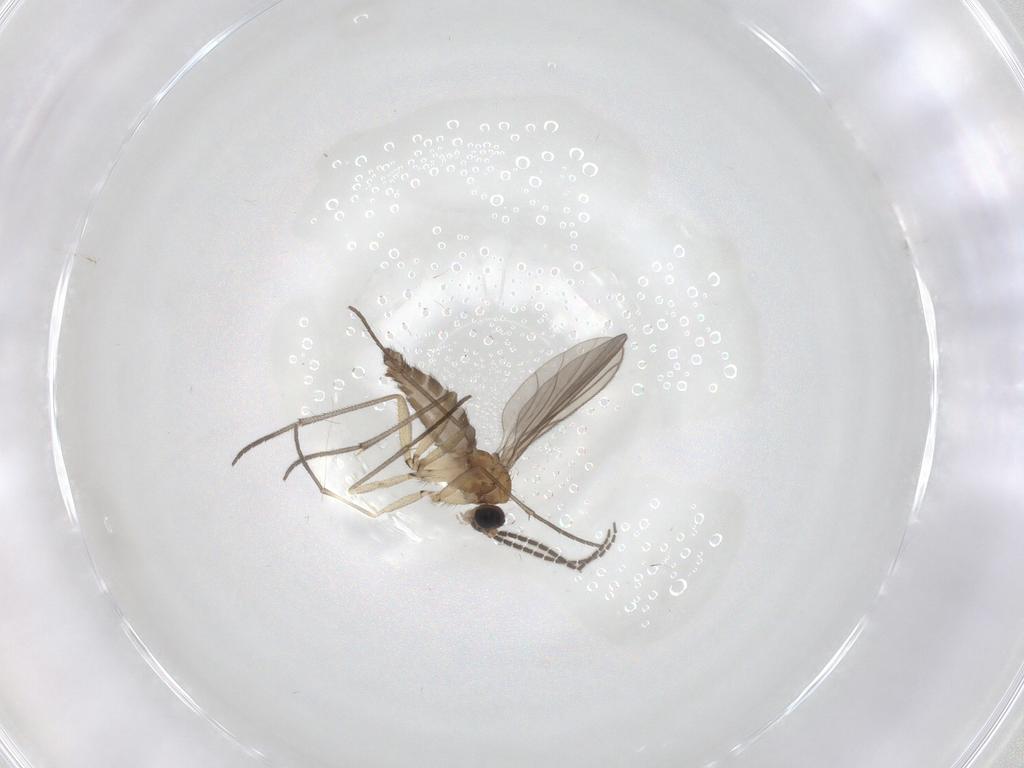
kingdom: Animalia
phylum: Arthropoda
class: Insecta
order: Diptera
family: Sciaridae
